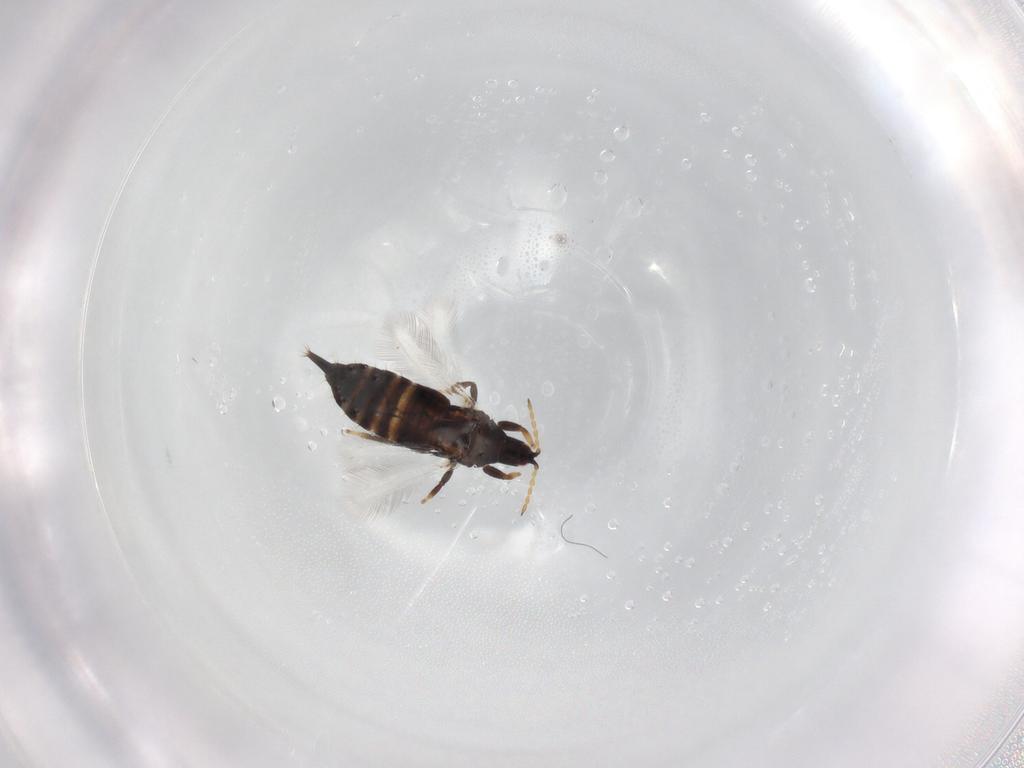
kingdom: Animalia
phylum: Arthropoda
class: Insecta
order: Thysanoptera
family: Phlaeothripidae
